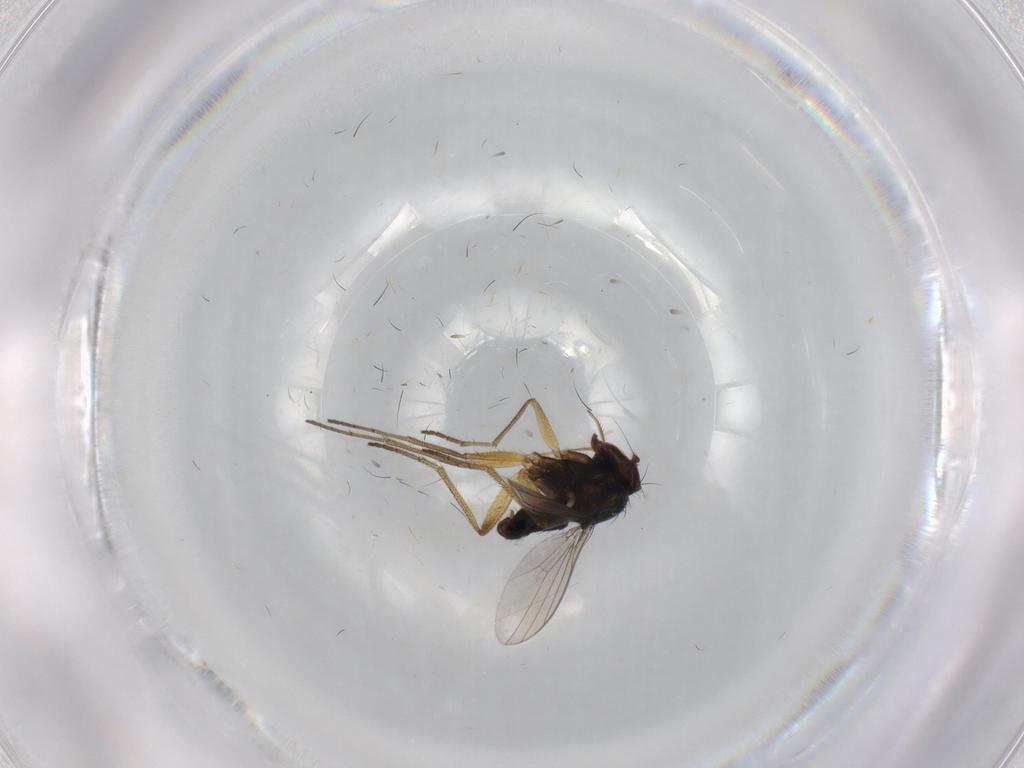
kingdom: Animalia
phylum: Arthropoda
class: Insecta
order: Diptera
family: Dolichopodidae
